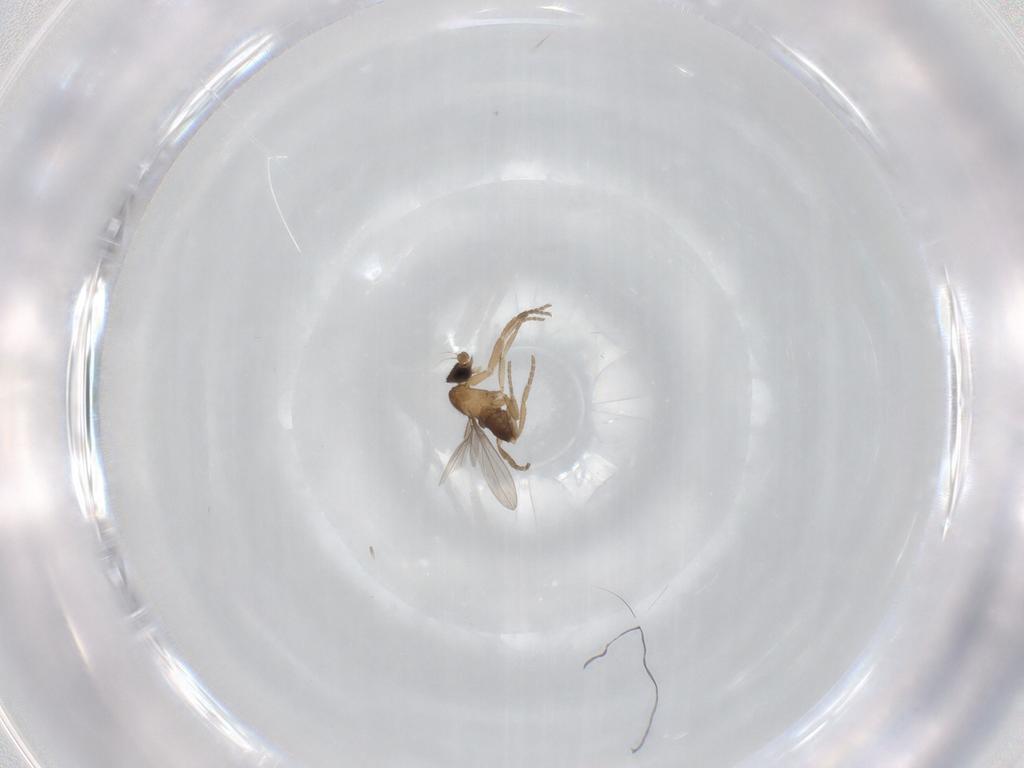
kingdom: Animalia
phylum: Arthropoda
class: Insecta
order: Diptera
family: Phoridae
